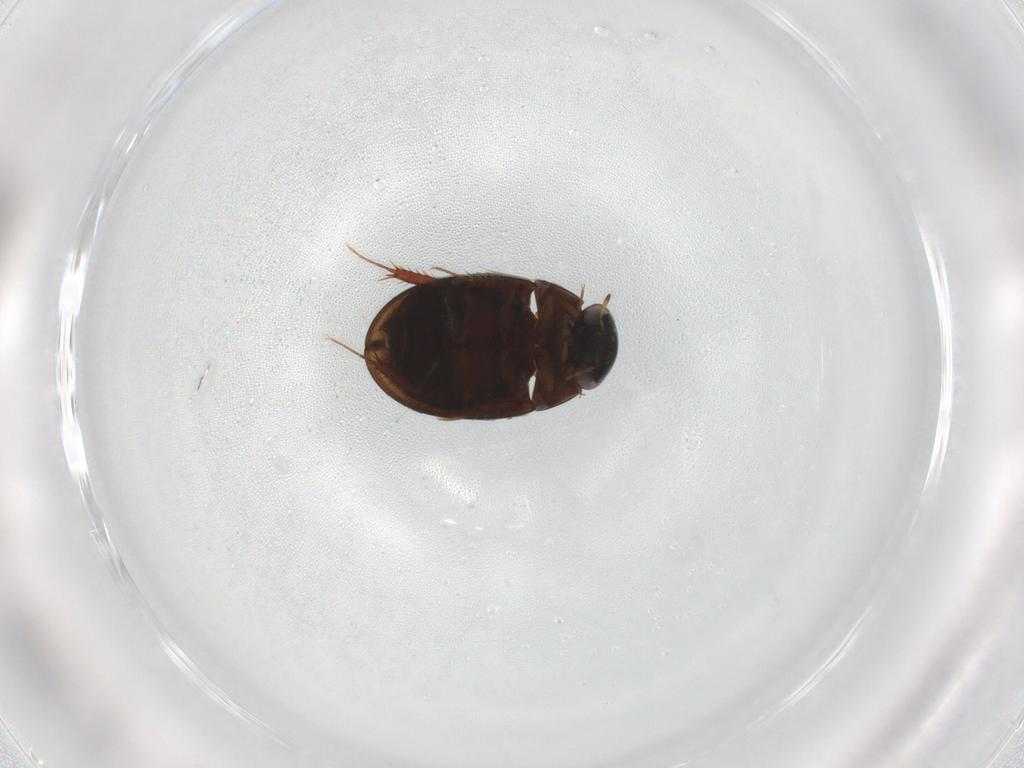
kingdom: Animalia
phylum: Arthropoda
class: Insecta
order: Coleoptera
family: Hydrophilidae
